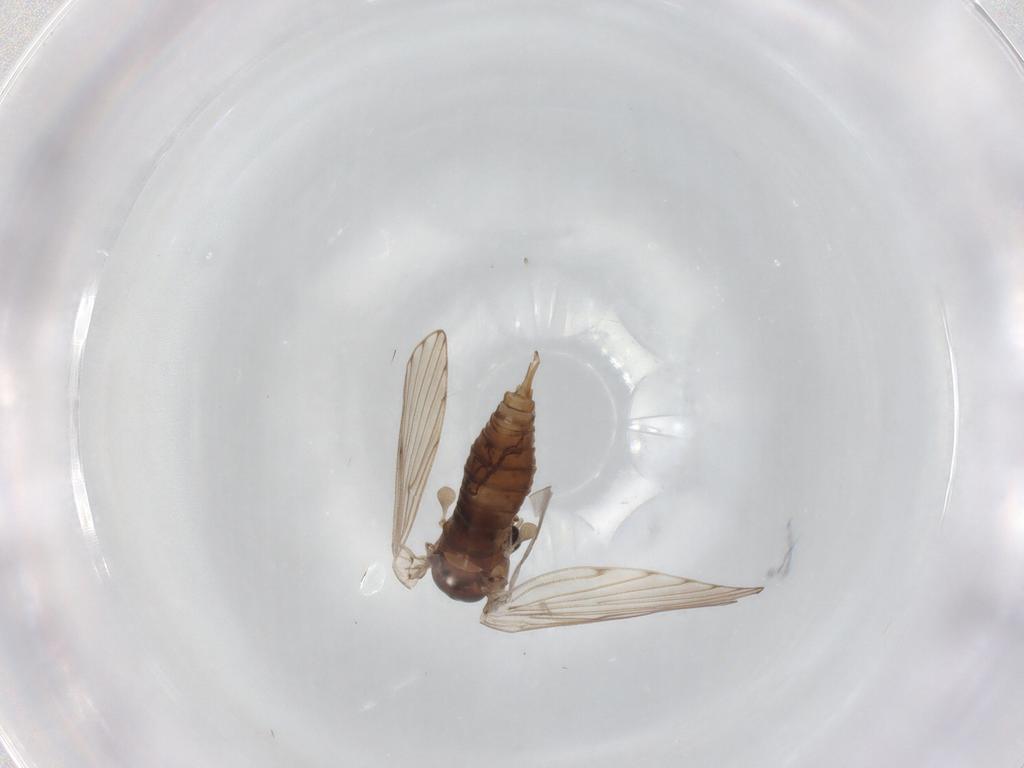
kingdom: Animalia
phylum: Arthropoda
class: Insecta
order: Diptera
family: Psychodidae
